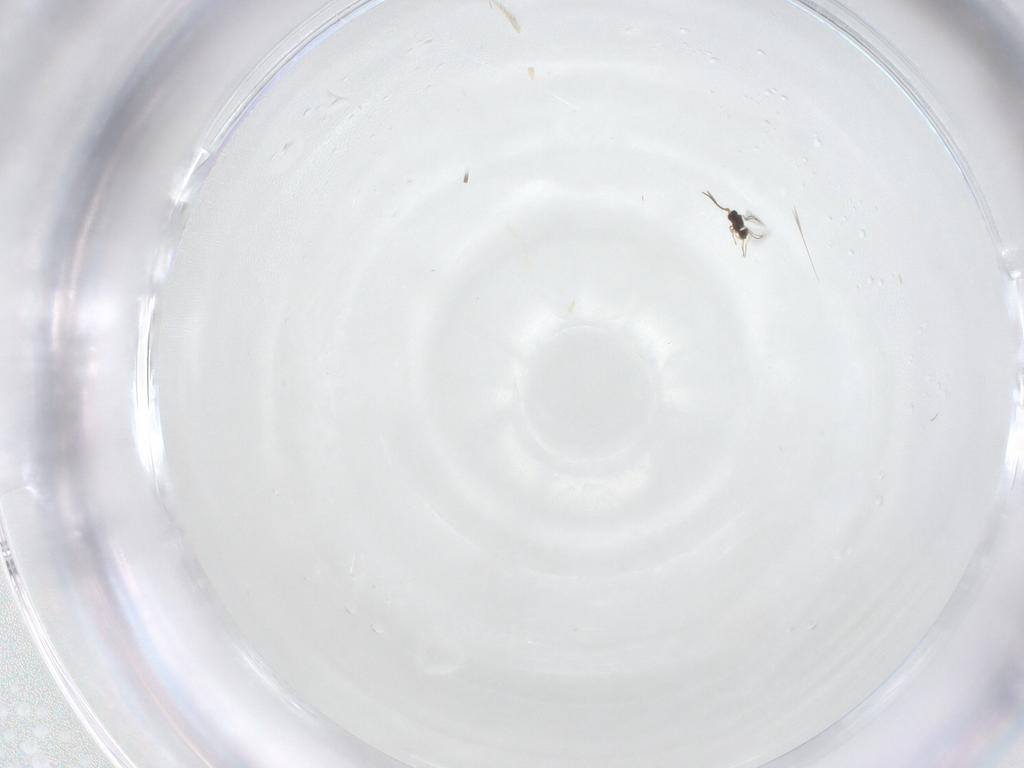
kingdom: Animalia
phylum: Arthropoda
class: Insecta
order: Hymenoptera
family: Mymaridae
